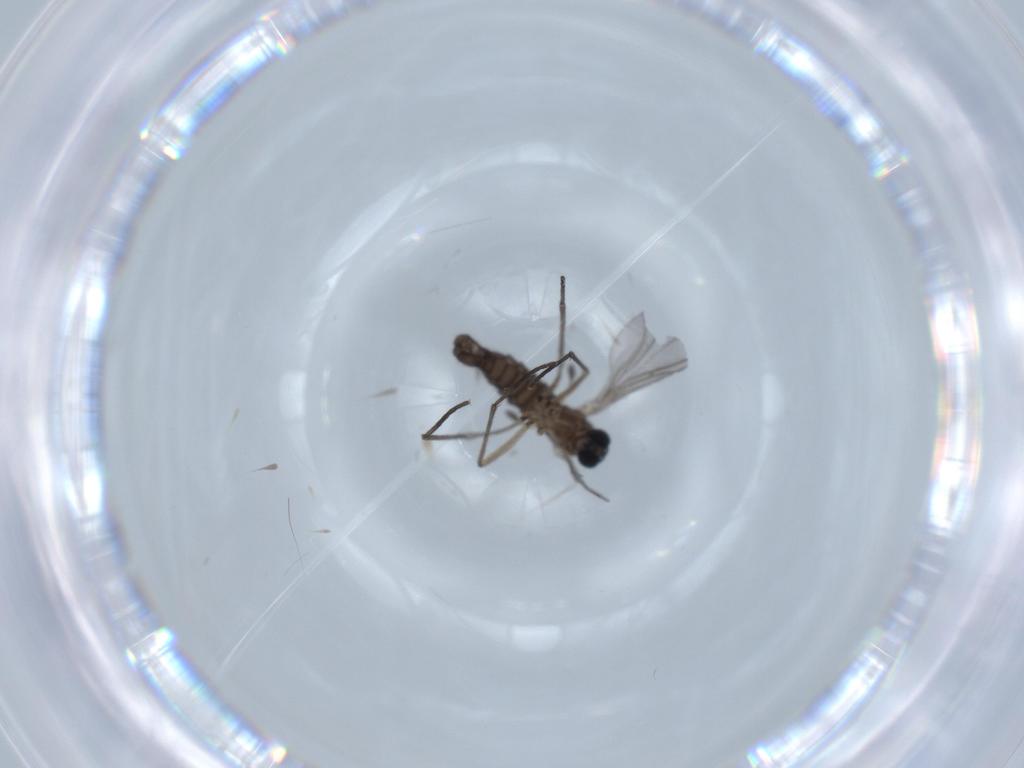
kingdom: Animalia
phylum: Arthropoda
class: Insecta
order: Diptera
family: Sciaridae
